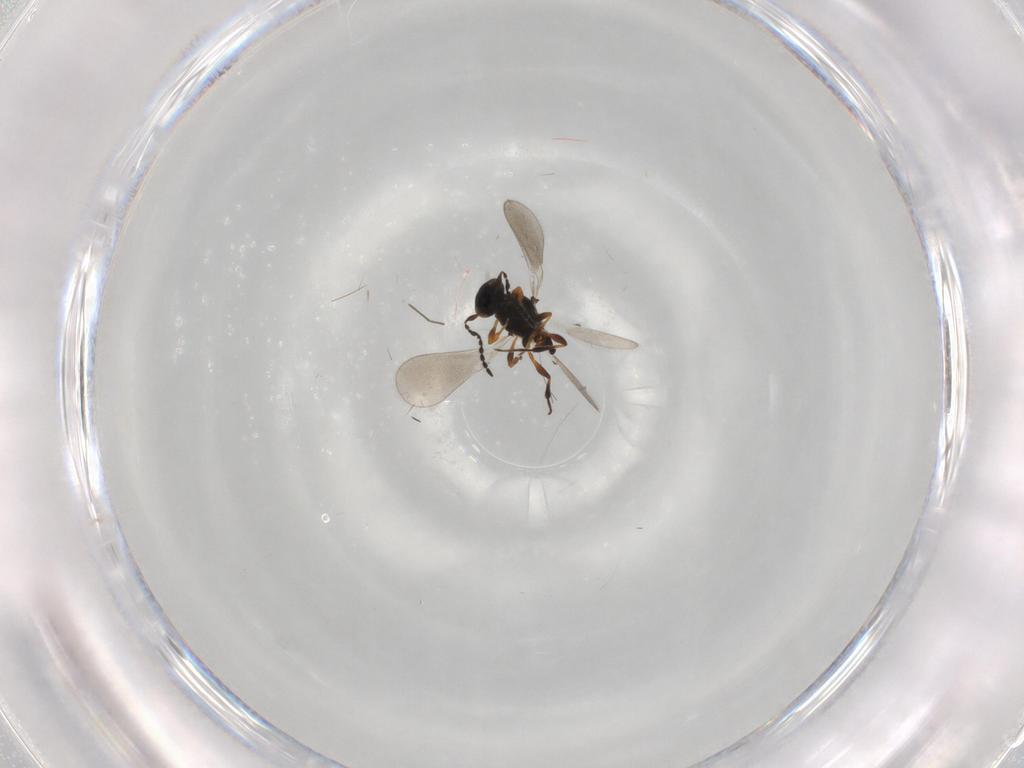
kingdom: Animalia
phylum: Arthropoda
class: Insecta
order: Hymenoptera
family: Platygastridae
